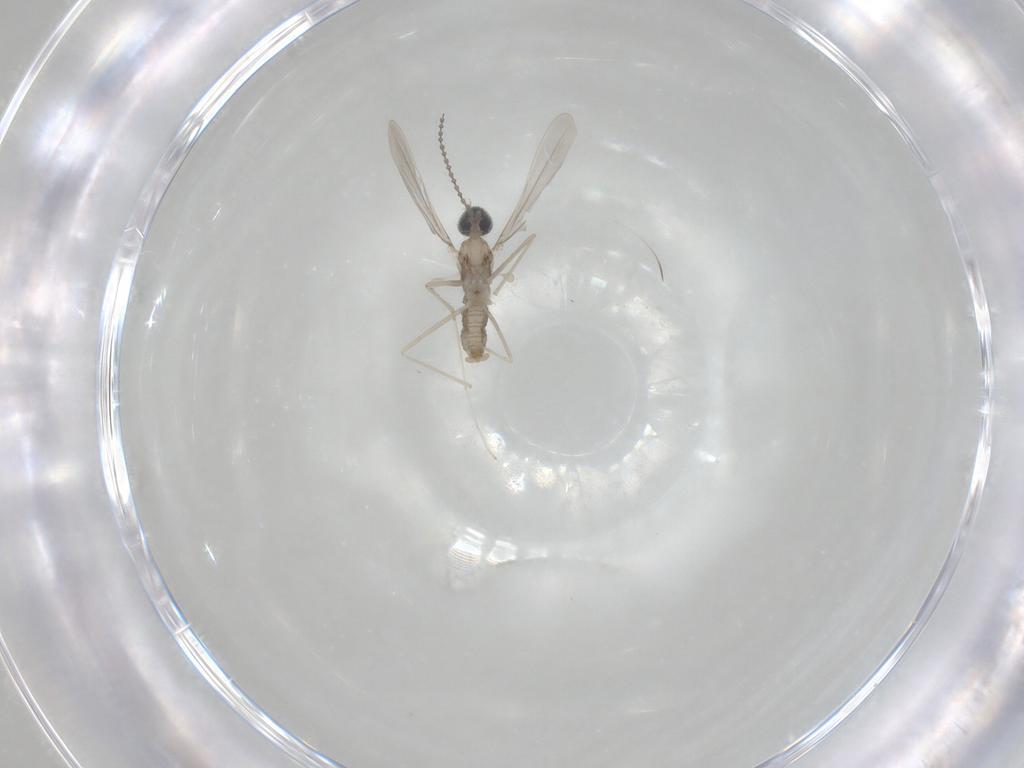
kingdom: Animalia
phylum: Arthropoda
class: Insecta
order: Diptera
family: Cecidomyiidae
